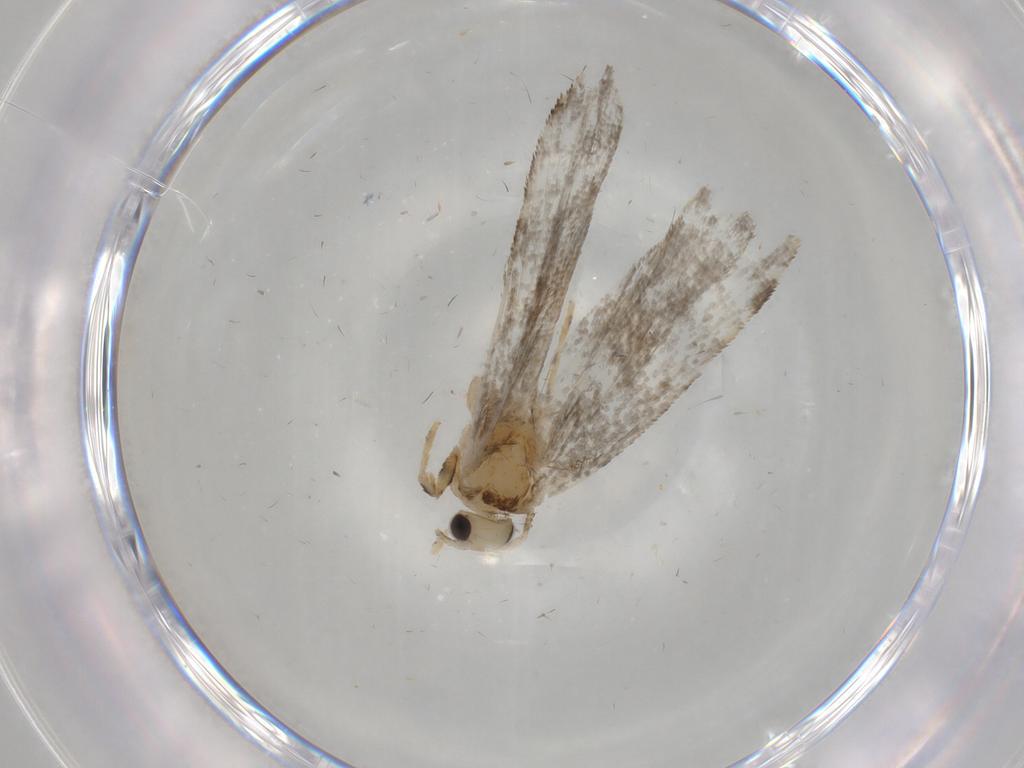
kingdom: Animalia
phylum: Arthropoda
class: Insecta
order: Lepidoptera
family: Tineidae
